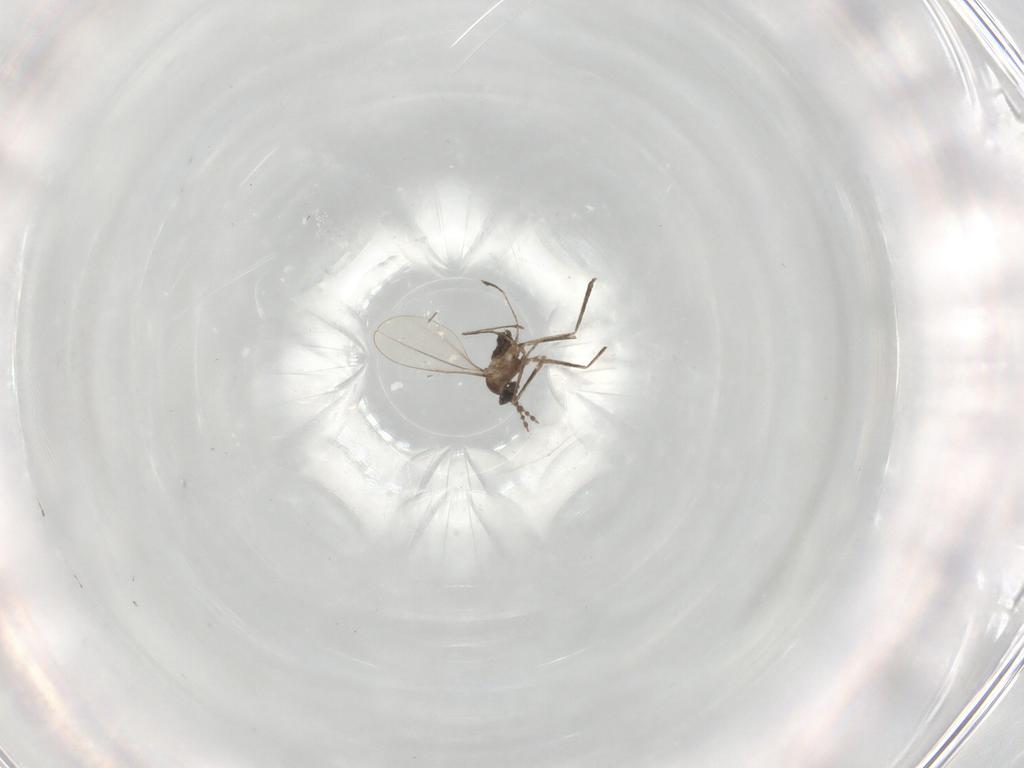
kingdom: Animalia
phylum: Arthropoda
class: Insecta
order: Diptera
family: Cecidomyiidae
